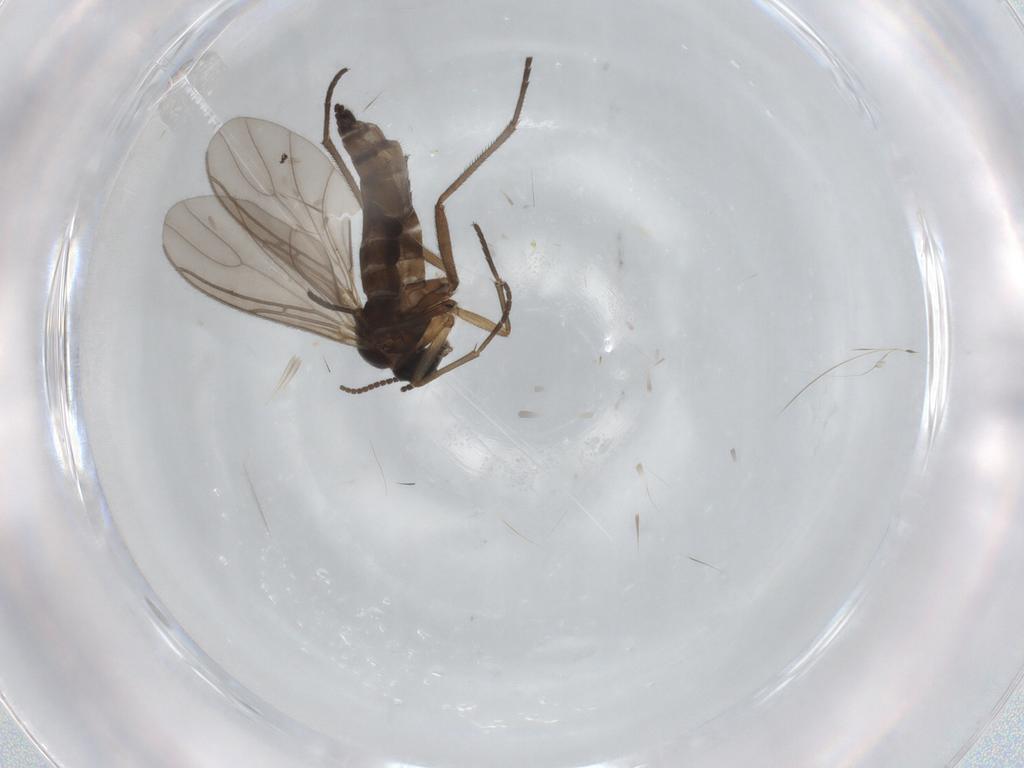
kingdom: Animalia
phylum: Arthropoda
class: Insecta
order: Diptera
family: Sciaridae
